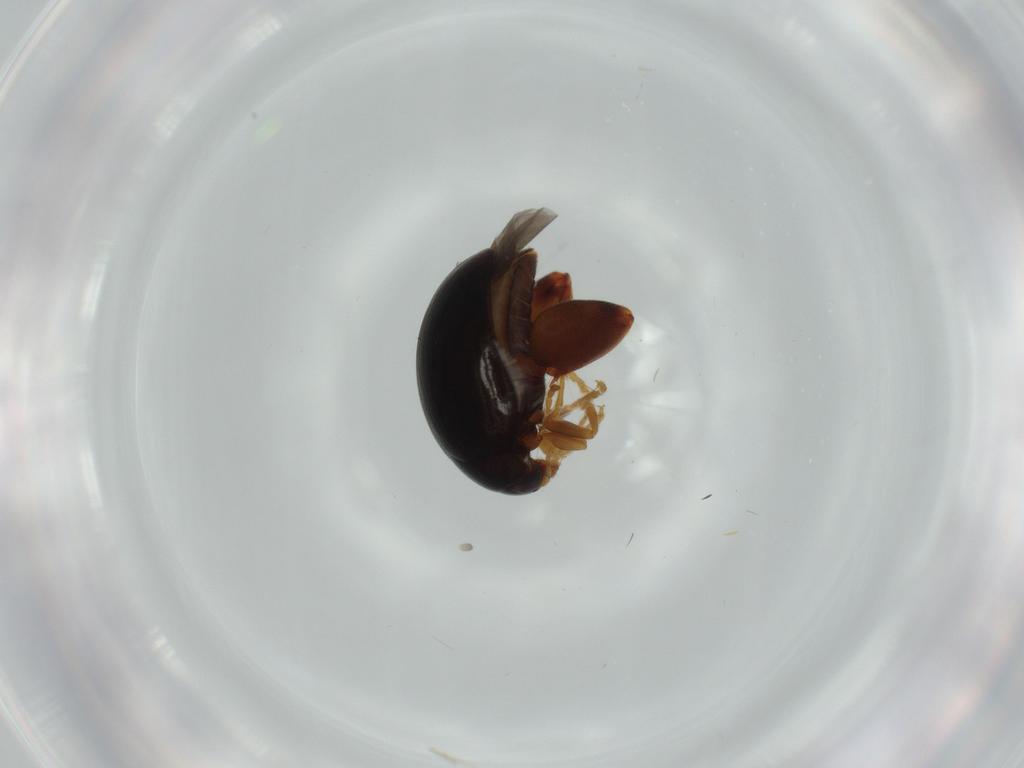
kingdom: Animalia
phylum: Arthropoda
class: Insecta
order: Coleoptera
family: Chrysomelidae
